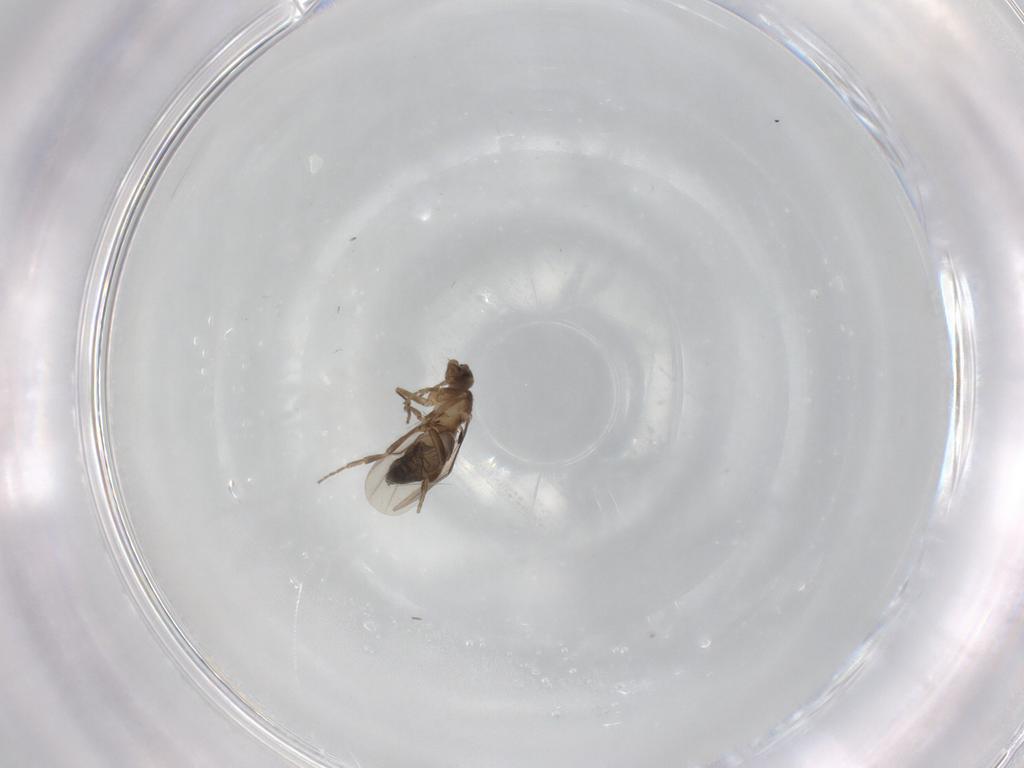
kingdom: Animalia
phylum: Arthropoda
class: Insecta
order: Diptera
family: Phoridae
